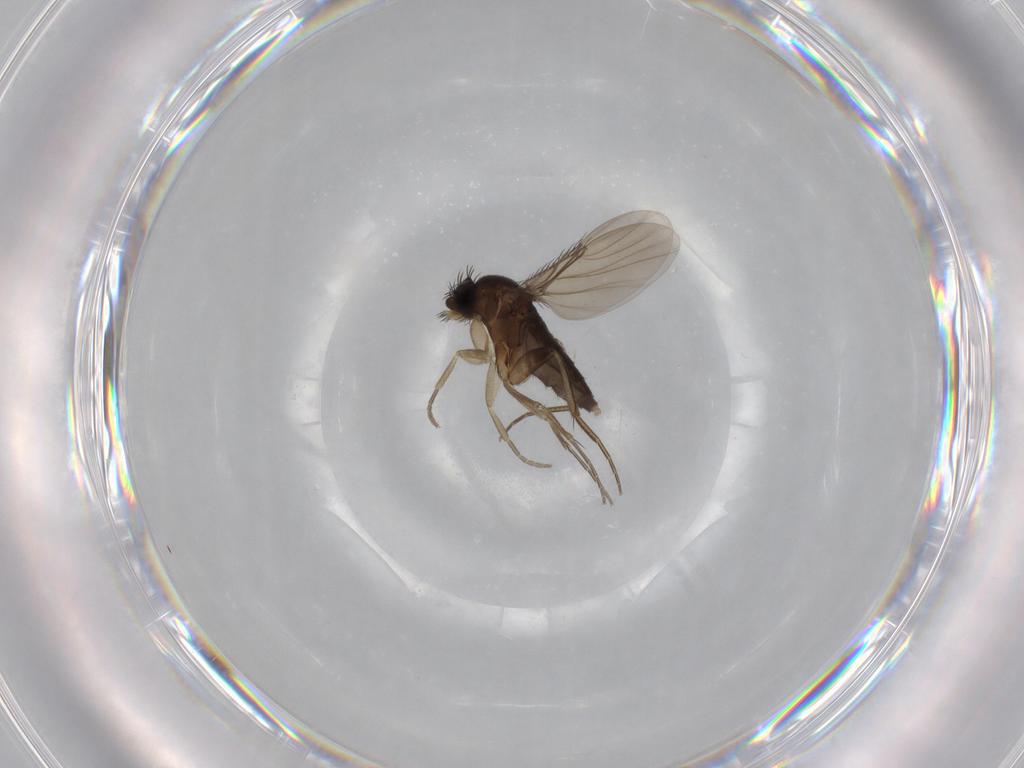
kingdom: Animalia
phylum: Arthropoda
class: Insecta
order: Diptera
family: Phoridae
